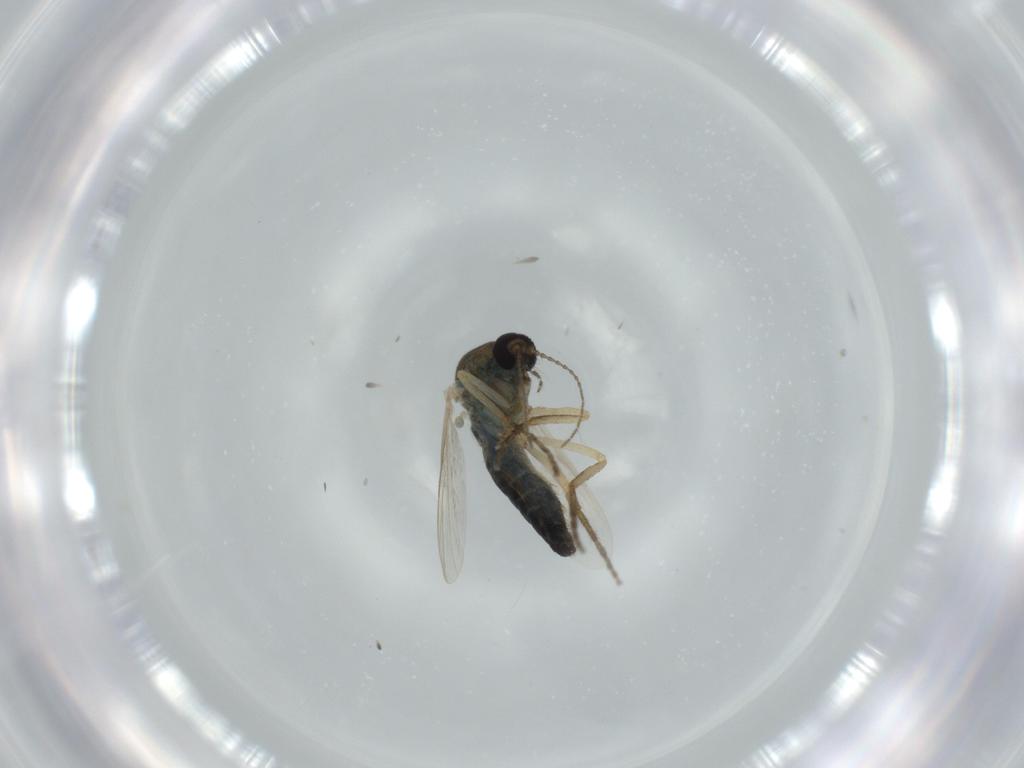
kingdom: Animalia
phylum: Arthropoda
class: Insecta
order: Diptera
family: Ceratopogonidae
